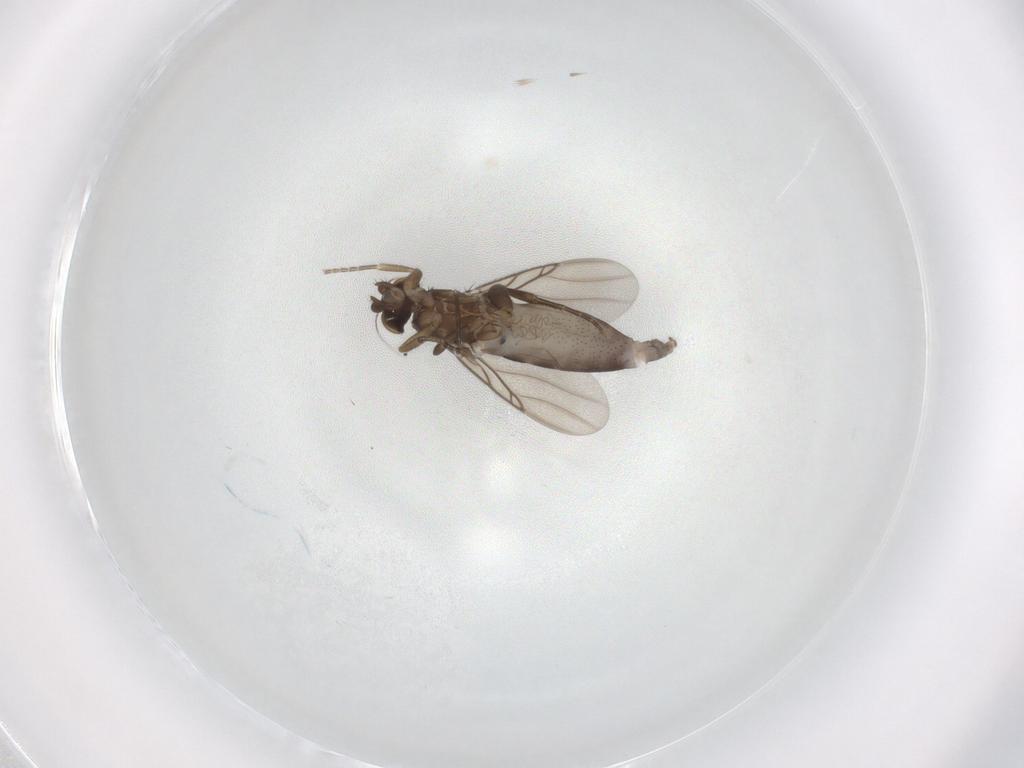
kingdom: Animalia
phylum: Arthropoda
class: Insecta
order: Diptera
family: Phoridae
